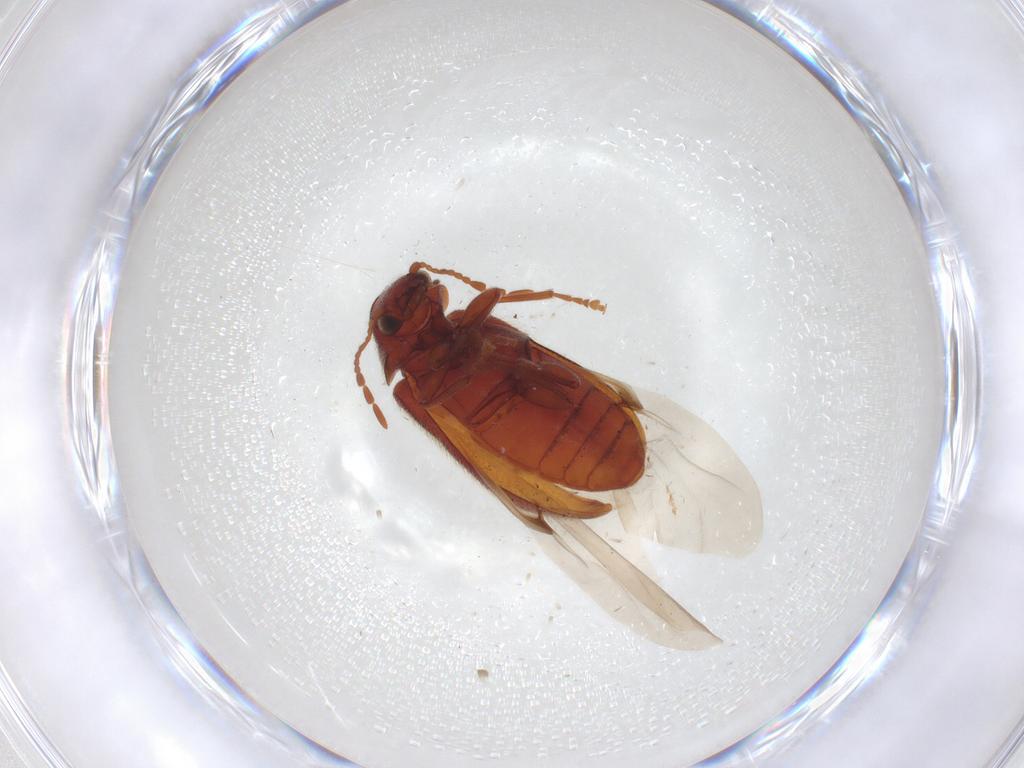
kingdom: Animalia
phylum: Arthropoda
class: Insecta
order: Coleoptera
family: Ptinidae
